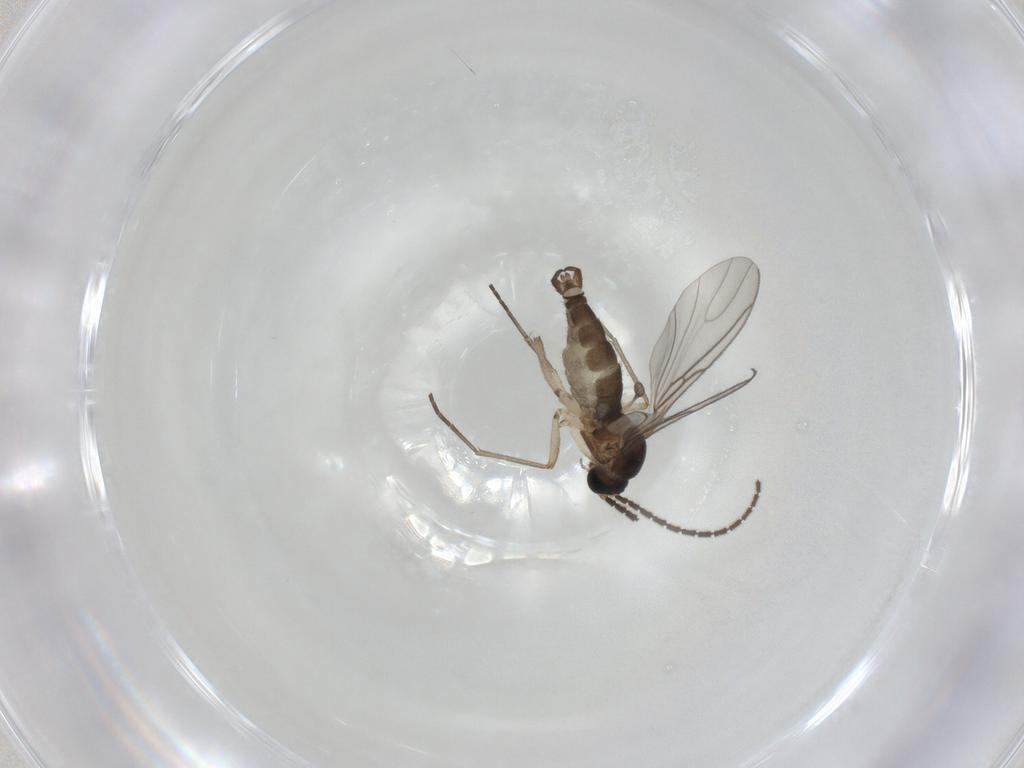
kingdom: Animalia
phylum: Arthropoda
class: Insecta
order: Diptera
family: Sciaridae
